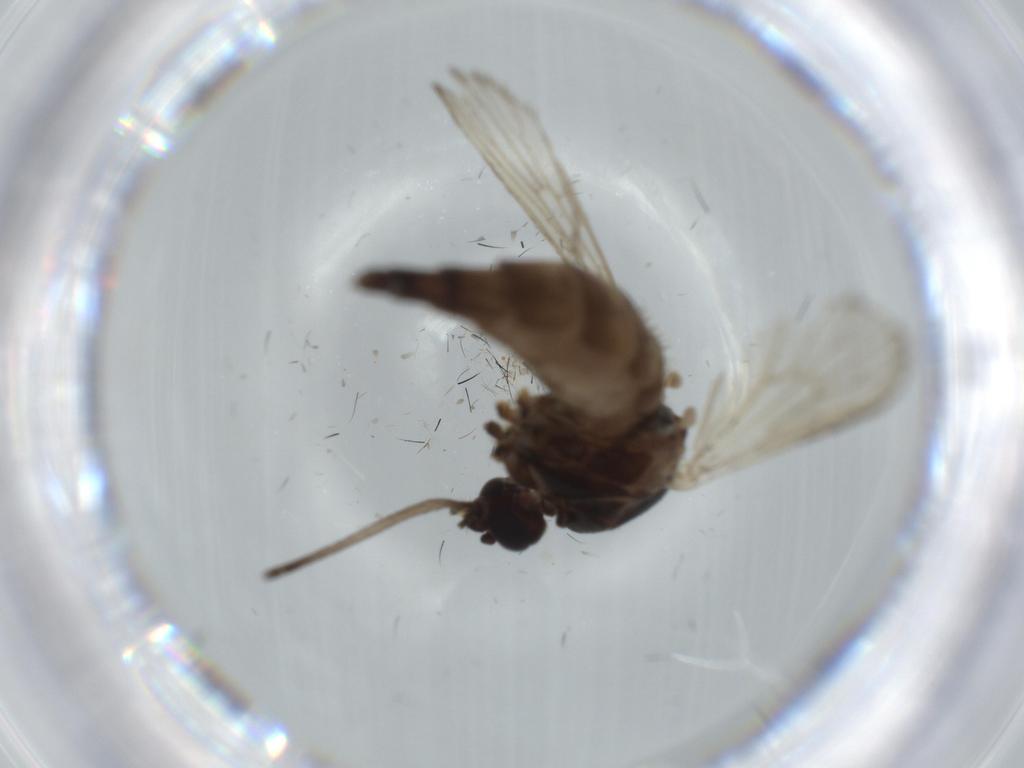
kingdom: Animalia
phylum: Arthropoda
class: Insecta
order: Diptera
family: Sciaridae
